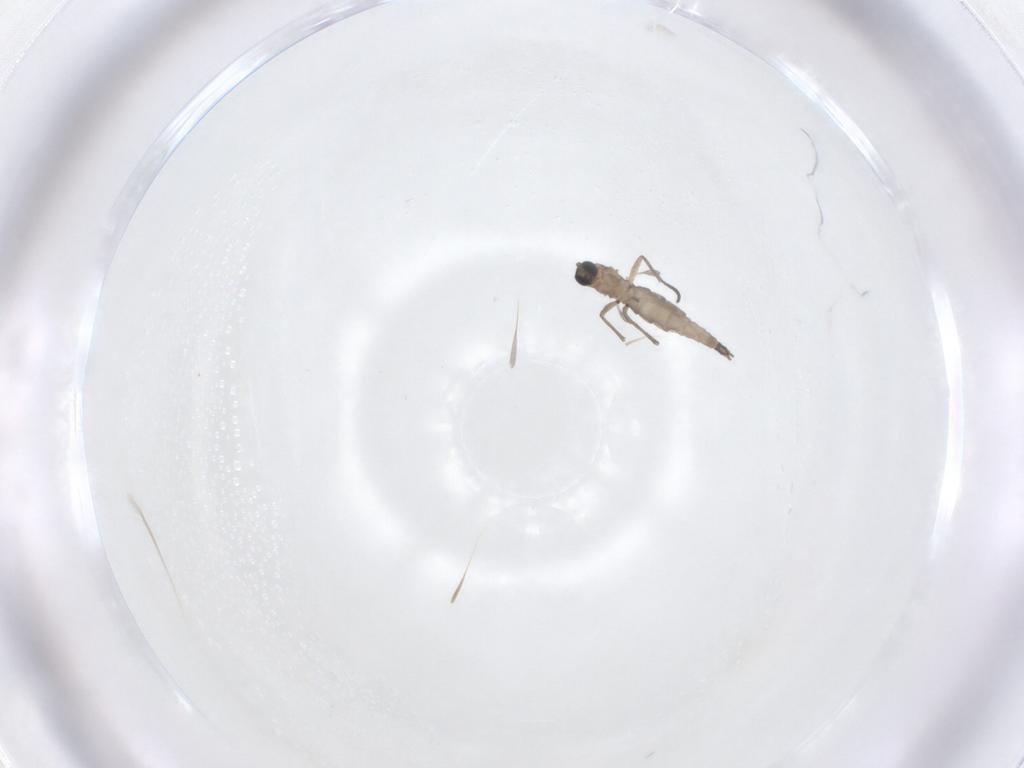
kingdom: Animalia
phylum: Arthropoda
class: Insecta
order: Diptera
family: Sciaridae
